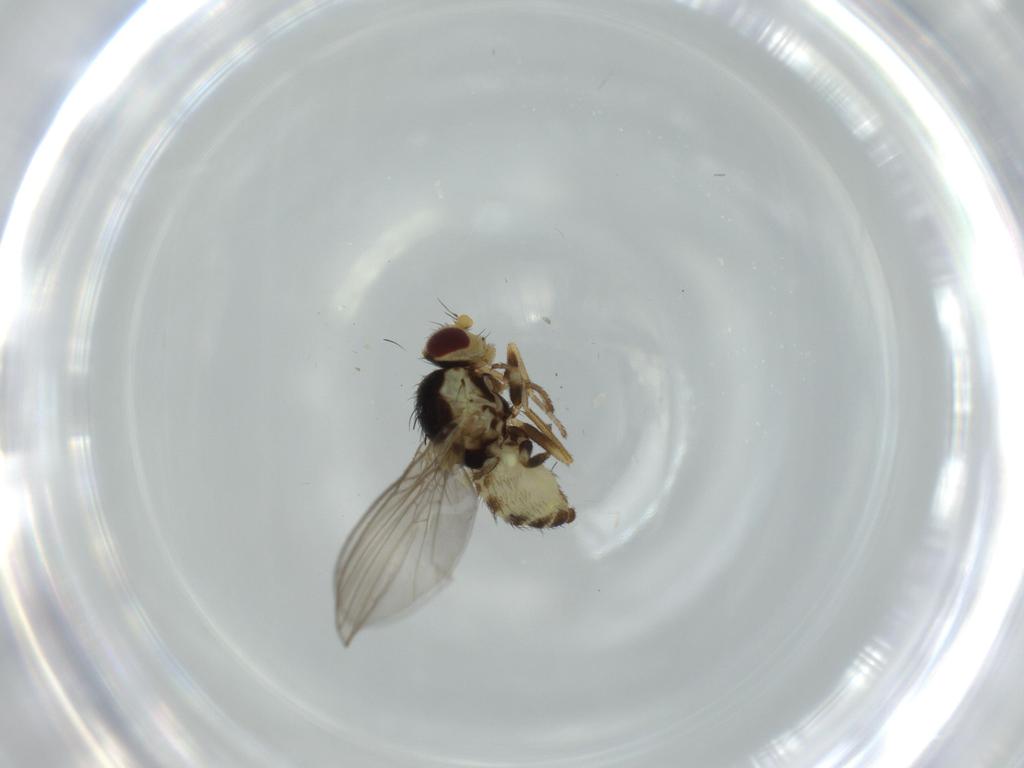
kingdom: Animalia
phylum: Arthropoda
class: Insecta
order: Diptera
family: Agromyzidae
